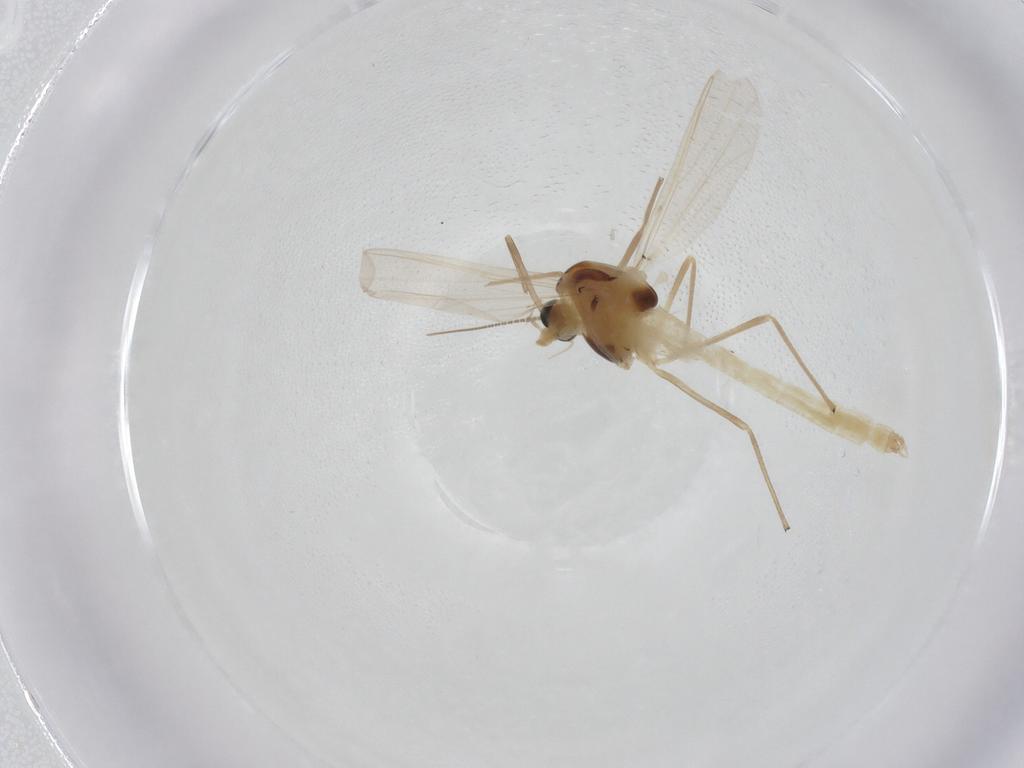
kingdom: Animalia
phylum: Arthropoda
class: Insecta
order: Diptera
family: Chironomidae
